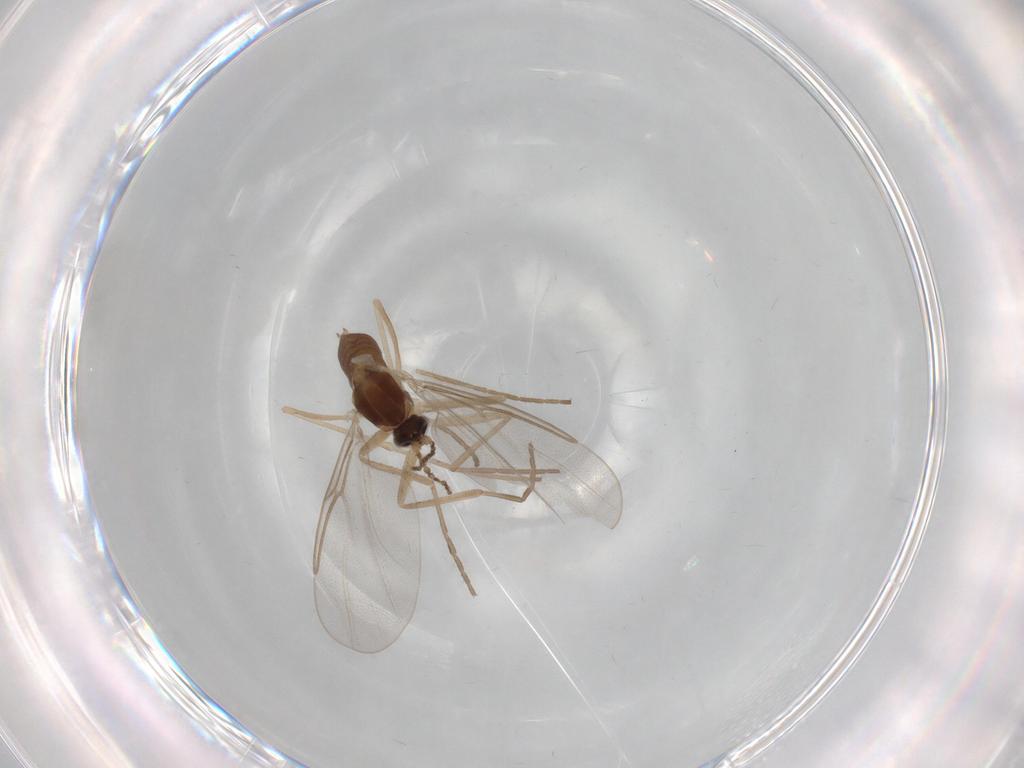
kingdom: Animalia
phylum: Arthropoda
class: Insecta
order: Diptera
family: Cecidomyiidae
